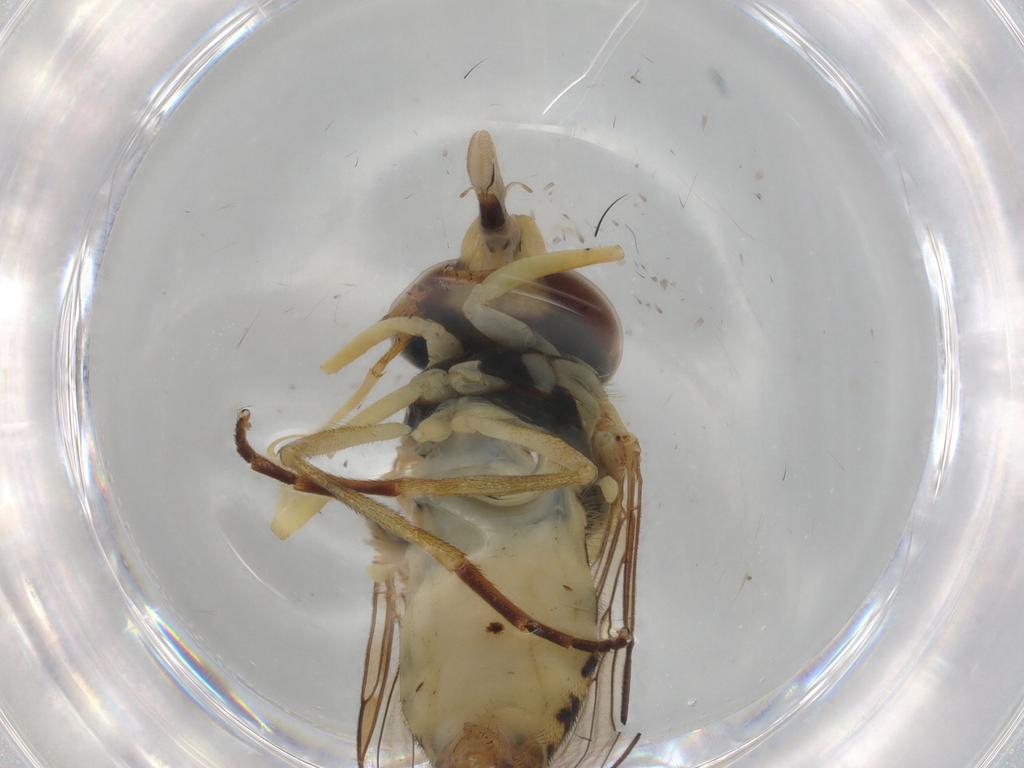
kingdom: Animalia
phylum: Arthropoda
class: Insecta
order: Diptera
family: Syrphidae
